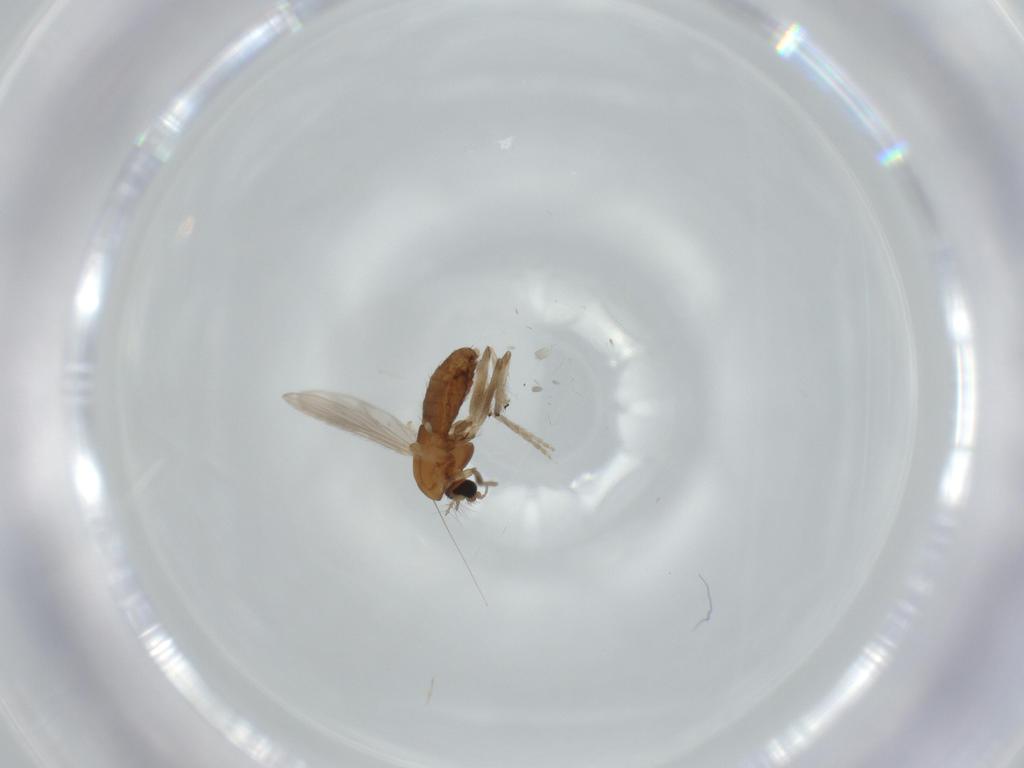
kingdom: Animalia
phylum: Arthropoda
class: Insecta
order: Diptera
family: Chironomidae
